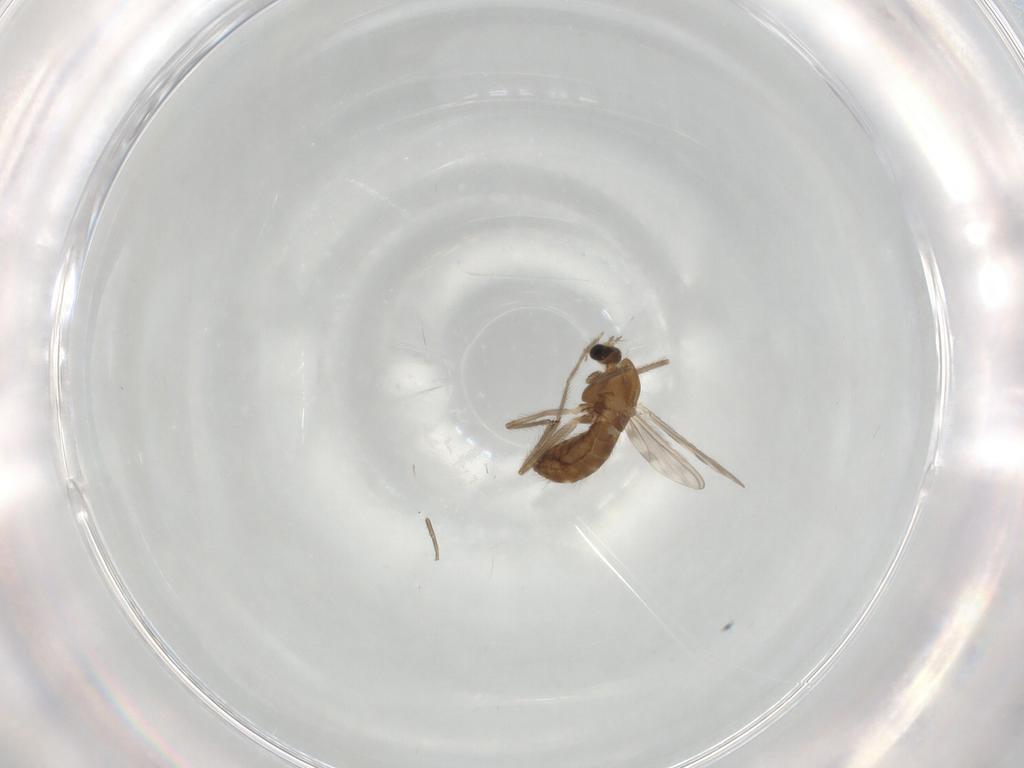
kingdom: Animalia
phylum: Arthropoda
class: Insecta
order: Diptera
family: Chironomidae
